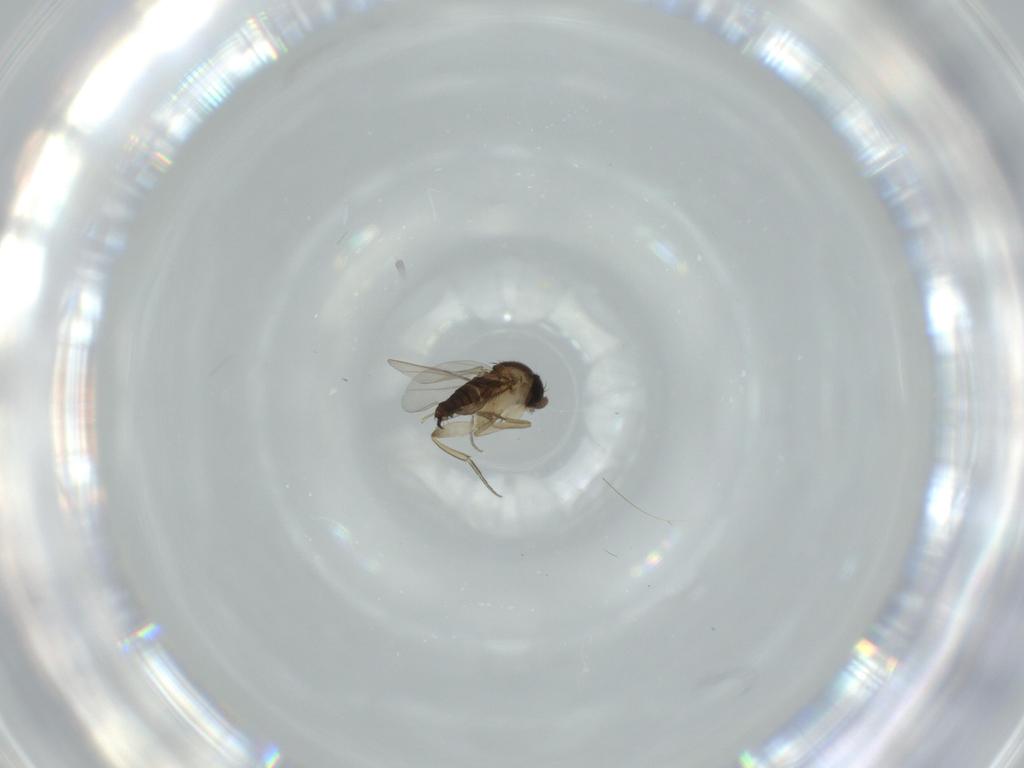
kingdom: Animalia
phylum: Arthropoda
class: Insecta
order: Diptera
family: Phoridae
